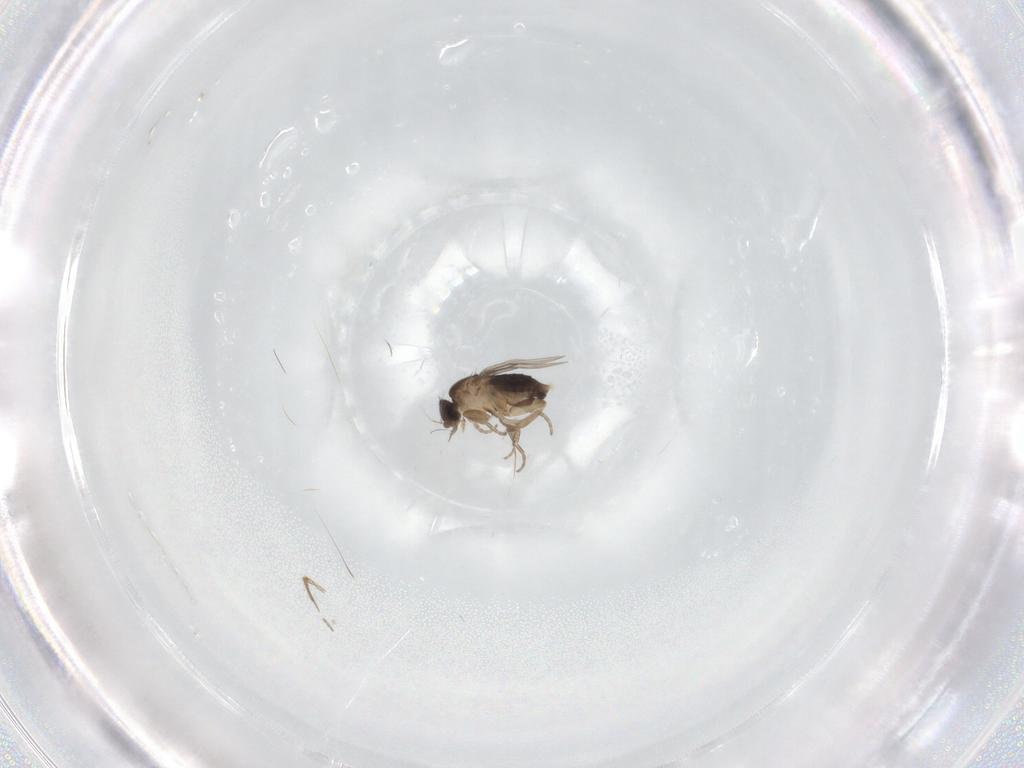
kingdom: Animalia
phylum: Arthropoda
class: Insecta
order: Diptera
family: Phoridae
